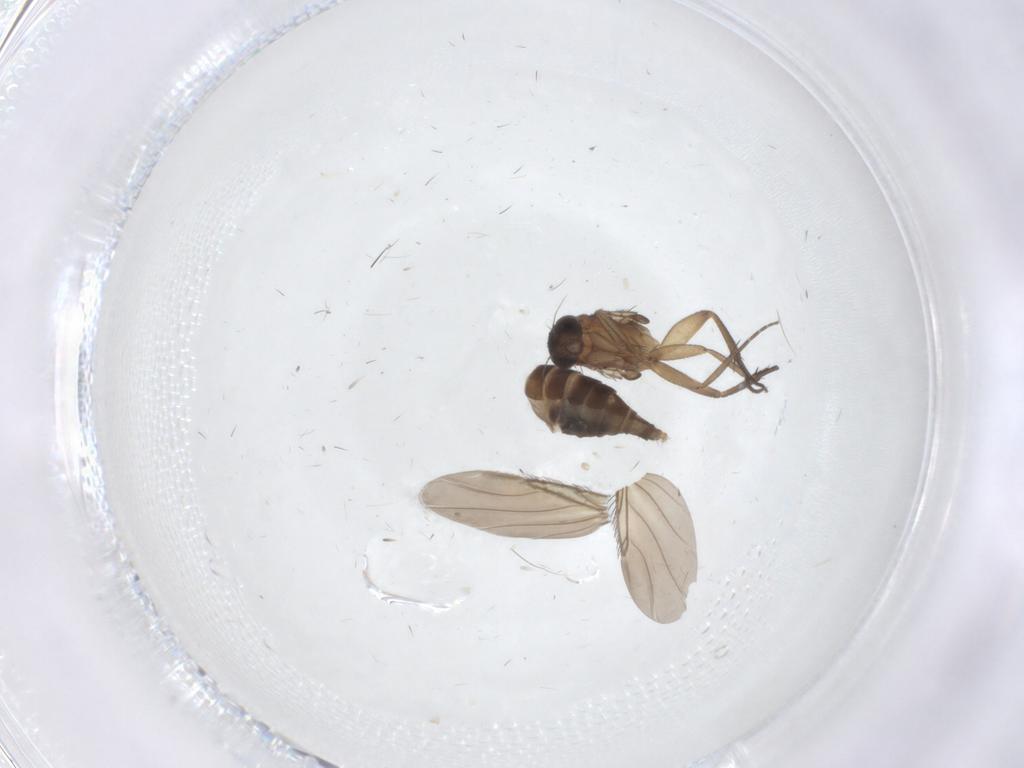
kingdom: Animalia
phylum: Arthropoda
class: Insecta
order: Diptera
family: Phoridae
